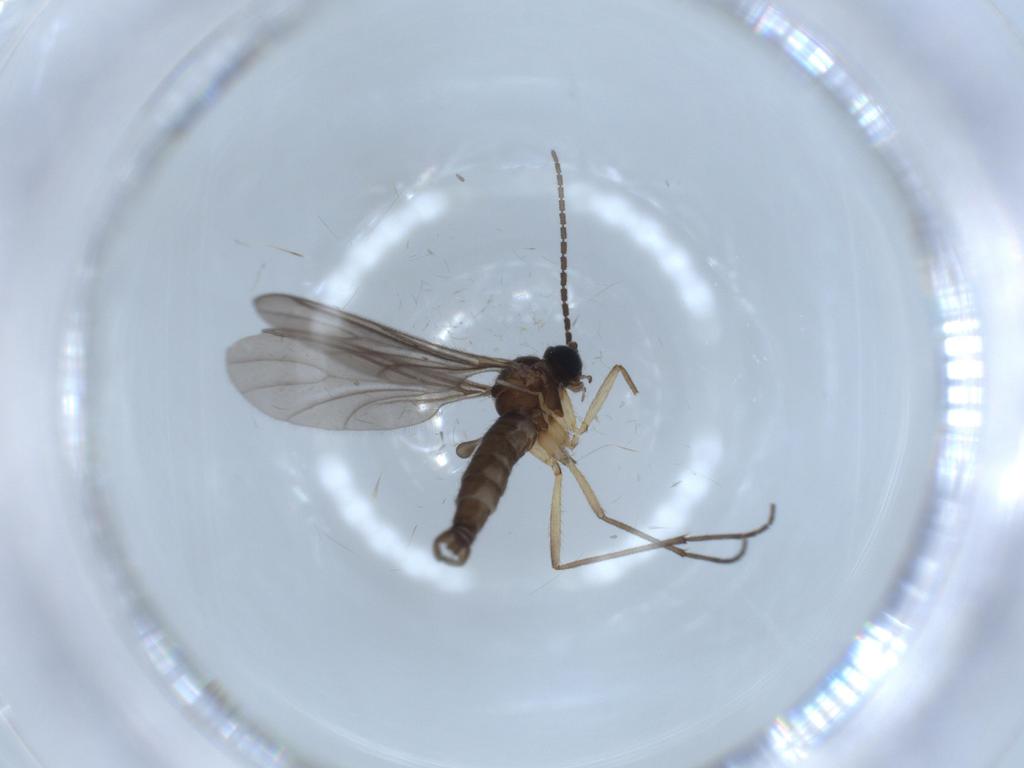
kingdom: Animalia
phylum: Arthropoda
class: Insecta
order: Diptera
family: Sciaridae
